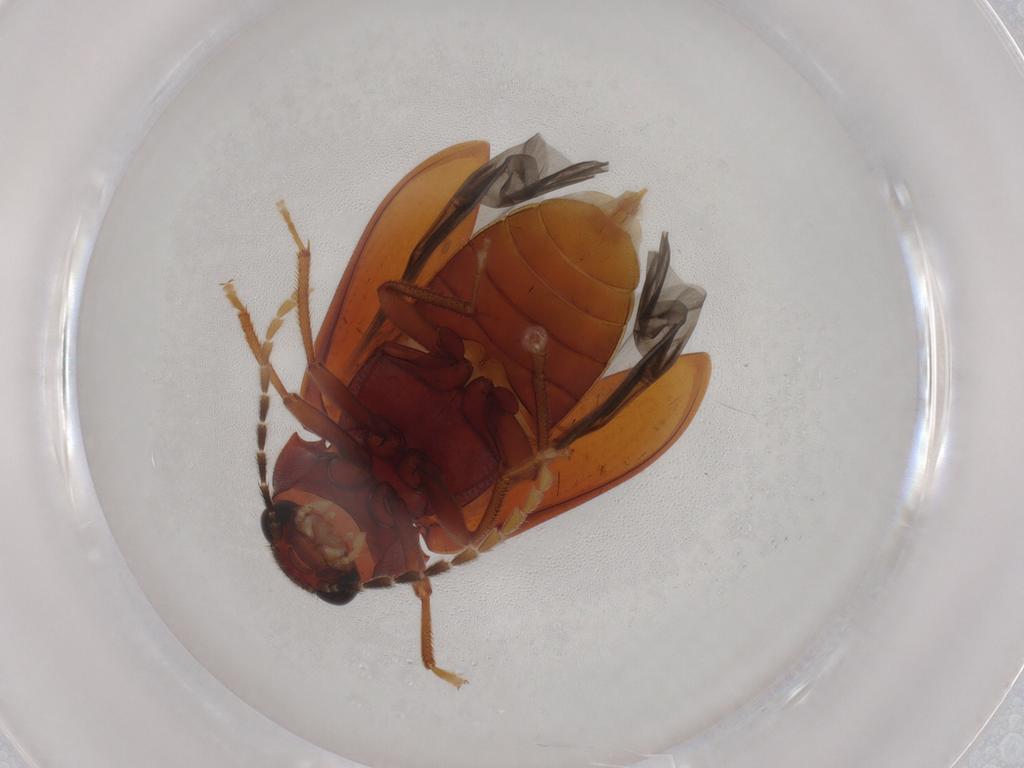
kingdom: Animalia
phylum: Arthropoda
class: Insecta
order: Coleoptera
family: Ptilodactylidae
